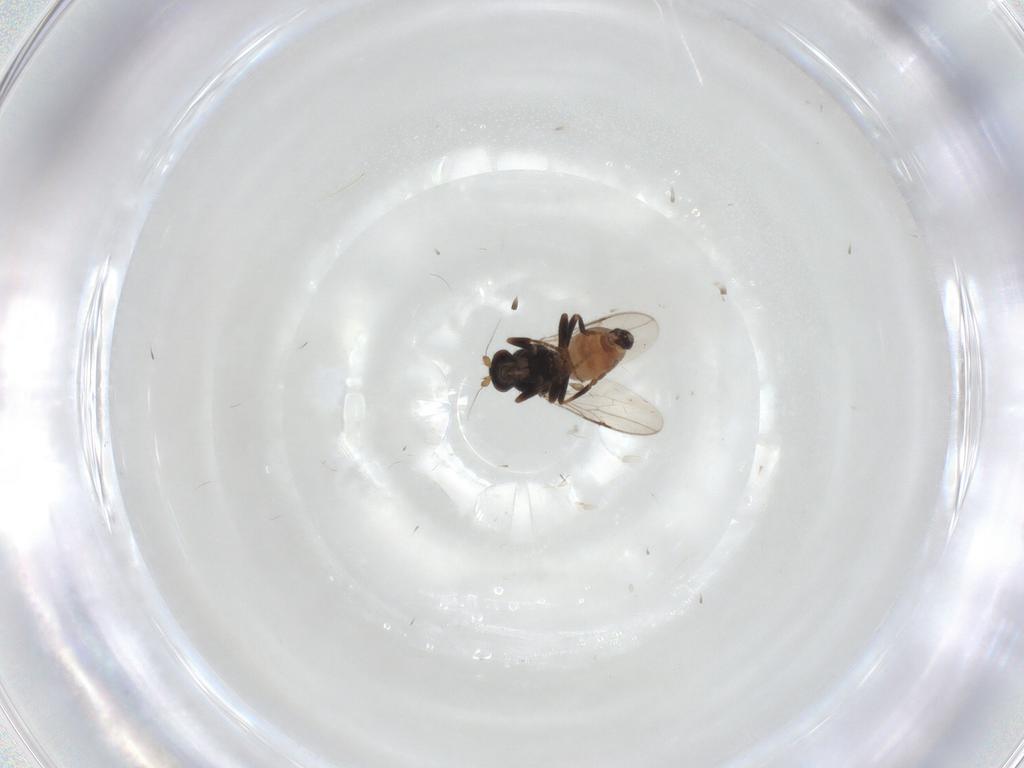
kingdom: Animalia
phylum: Arthropoda
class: Insecta
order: Diptera
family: Sphaeroceridae
